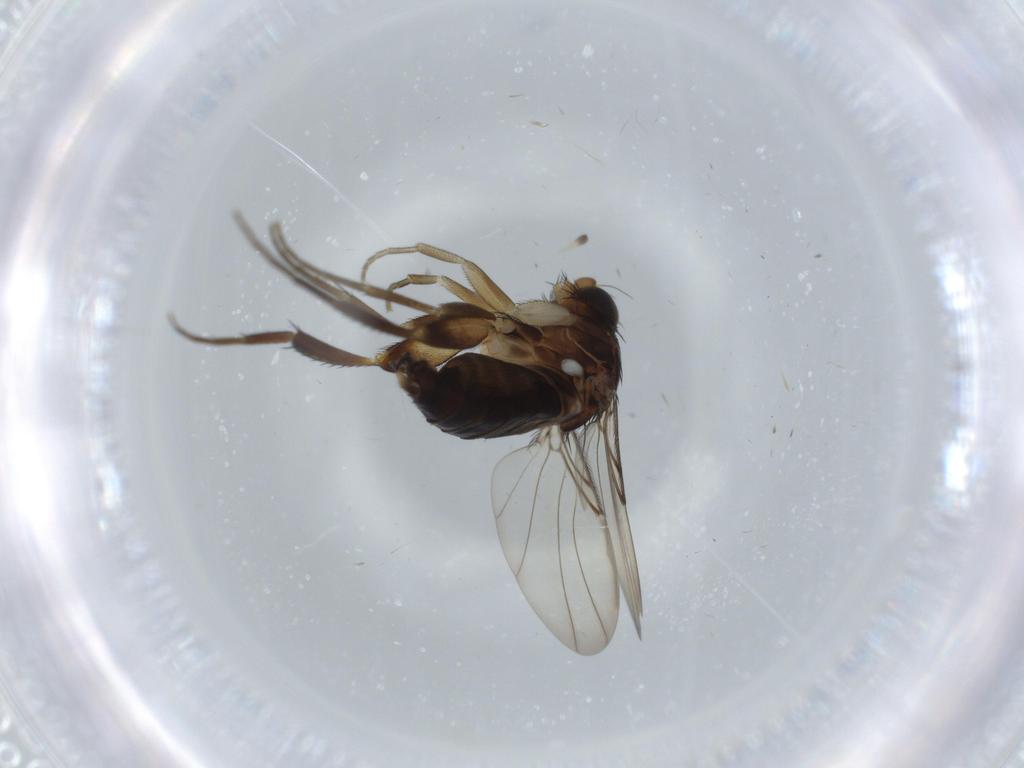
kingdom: Animalia
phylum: Arthropoda
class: Insecta
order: Diptera
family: Phoridae
